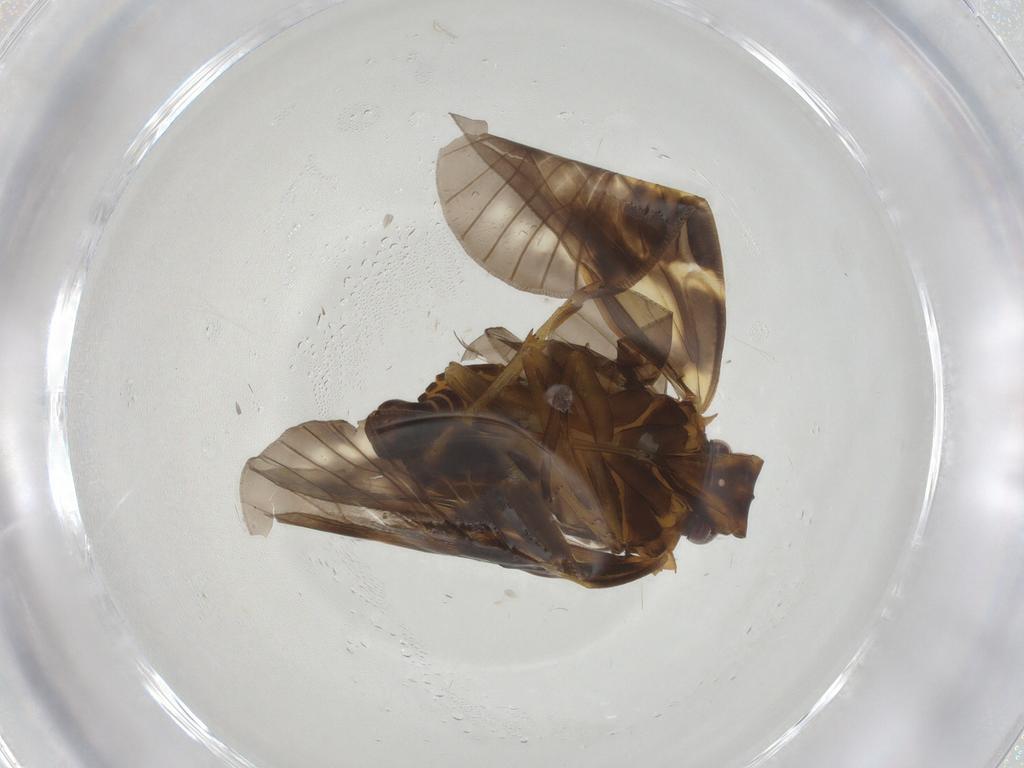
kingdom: Animalia
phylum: Arthropoda
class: Insecta
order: Hemiptera
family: Cixiidae
